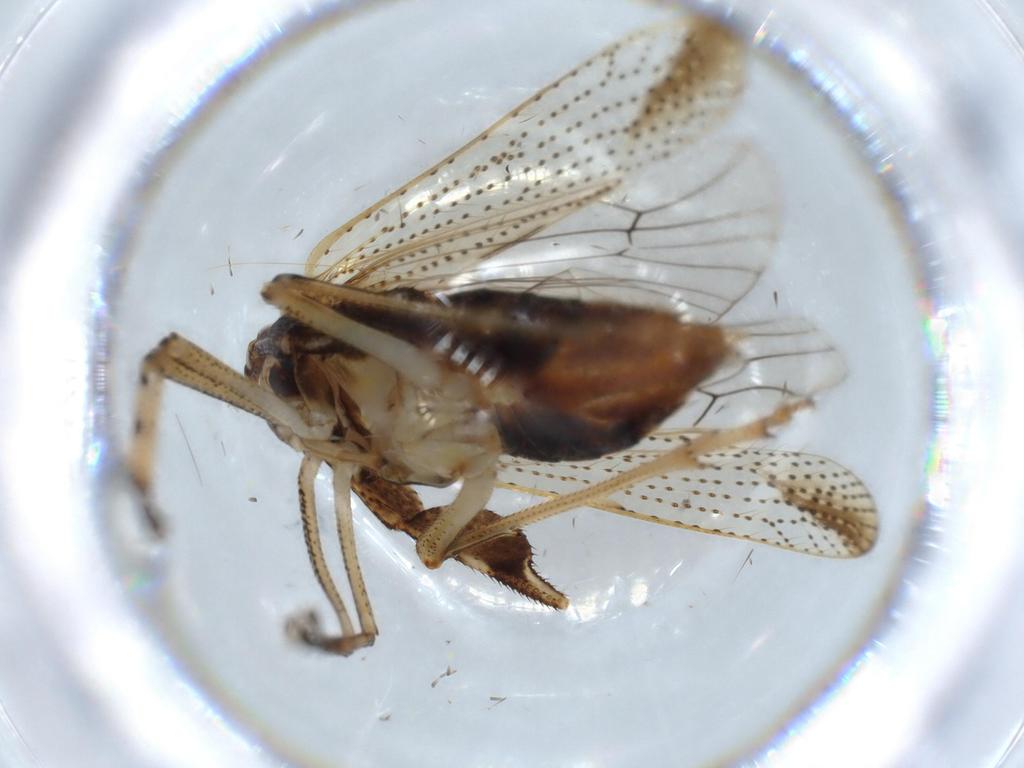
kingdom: Animalia
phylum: Arthropoda
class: Insecta
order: Hemiptera
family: Delphacidae
